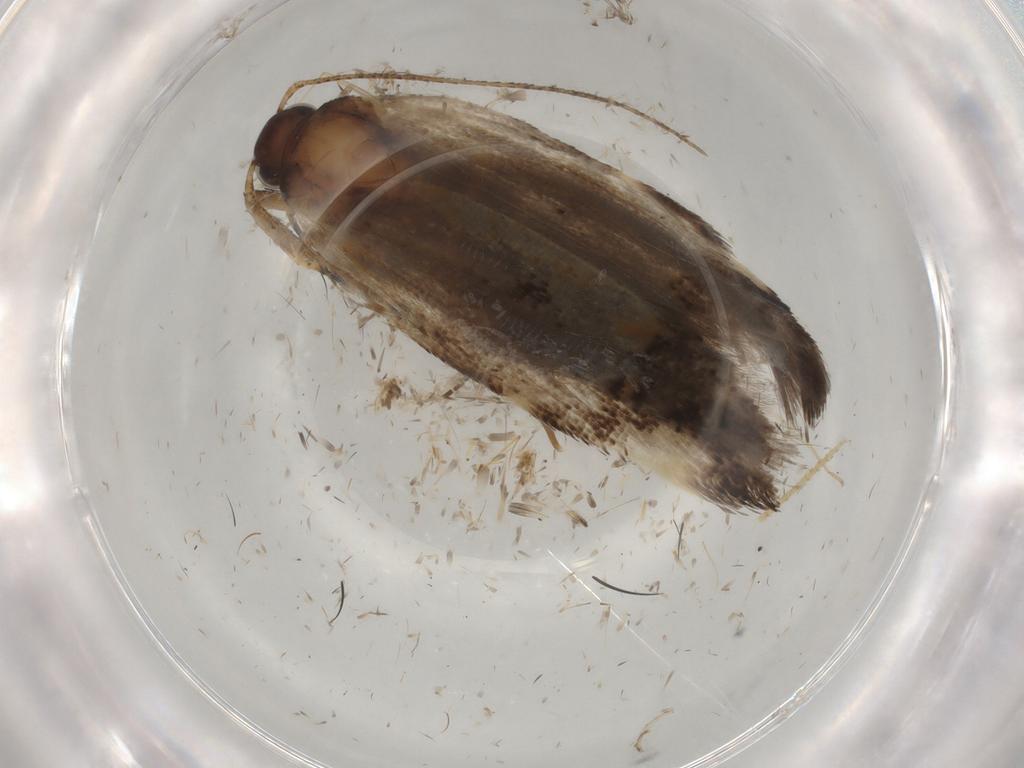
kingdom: Animalia
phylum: Arthropoda
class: Insecta
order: Lepidoptera
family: Gelechiidae
